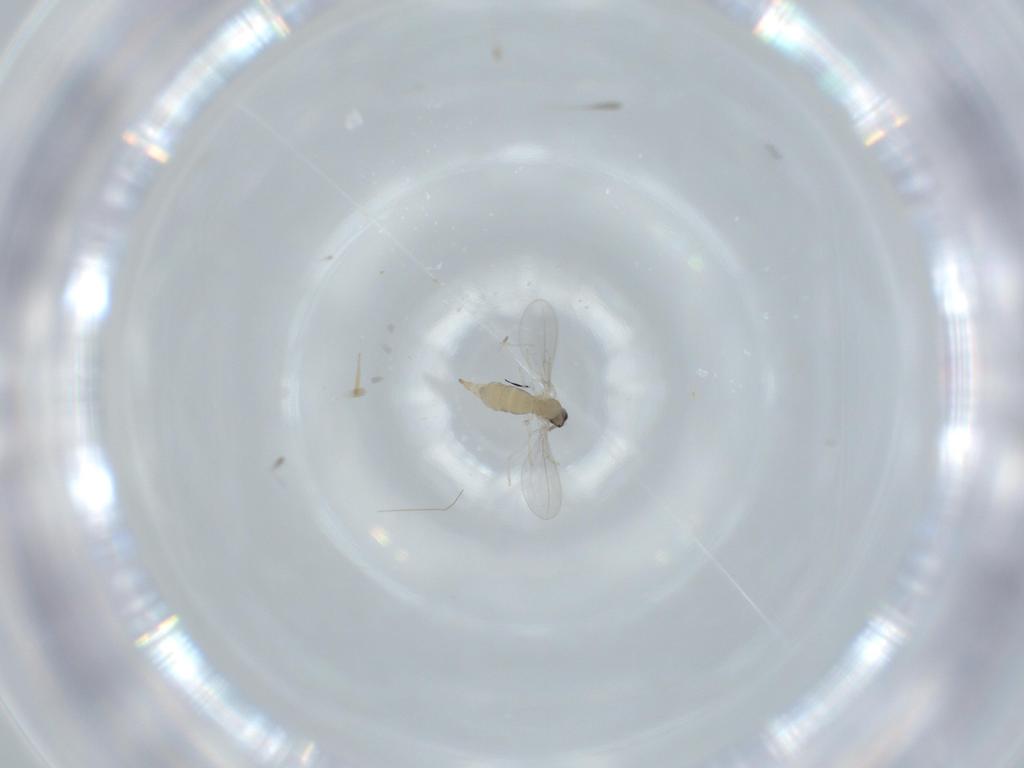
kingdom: Animalia
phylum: Arthropoda
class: Insecta
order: Diptera
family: Cecidomyiidae
